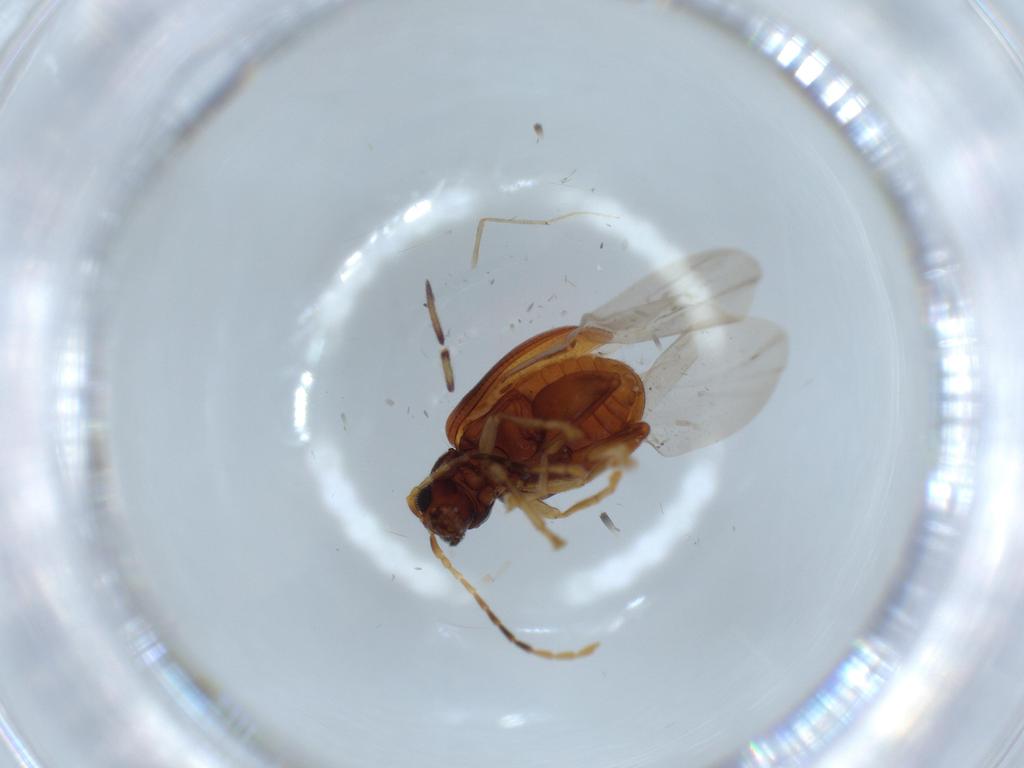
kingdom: Animalia
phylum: Arthropoda
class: Insecta
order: Coleoptera
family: Chrysomelidae
